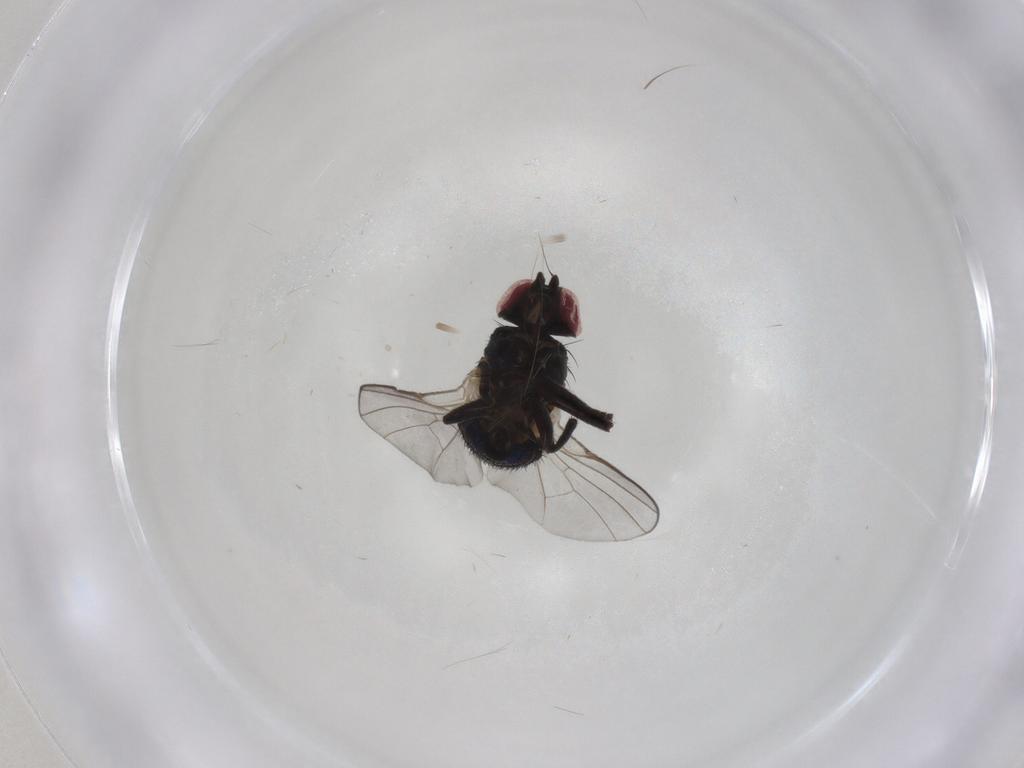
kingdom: Animalia
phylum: Arthropoda
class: Insecta
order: Diptera
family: Agromyzidae
